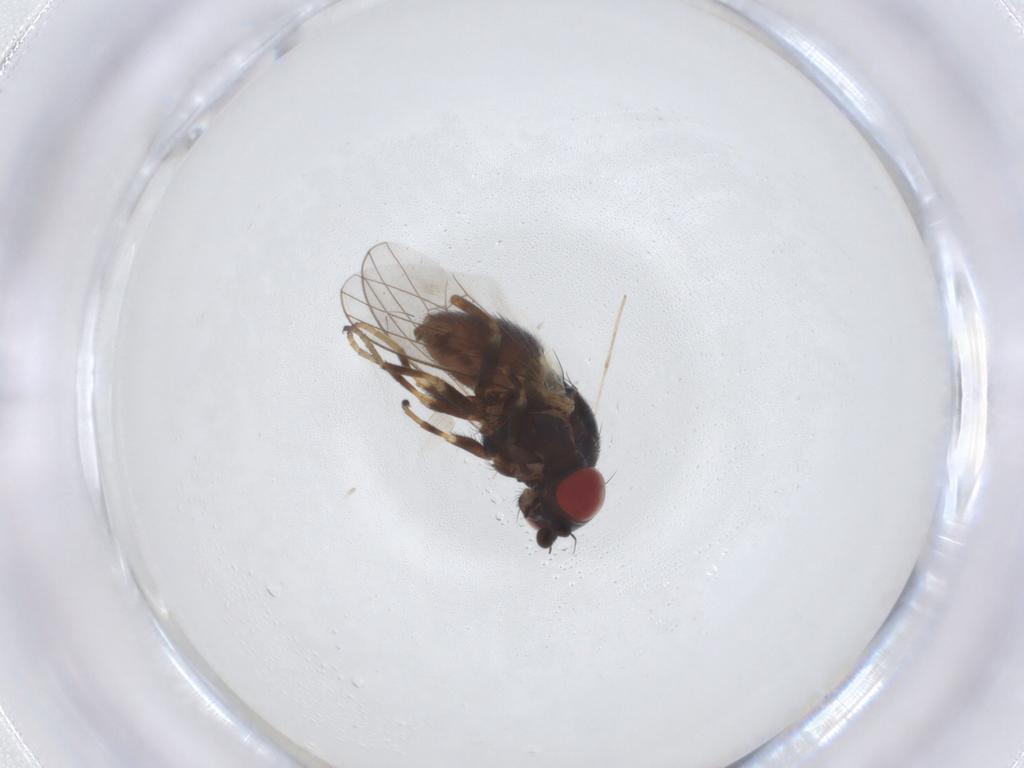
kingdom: Animalia
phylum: Arthropoda
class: Insecta
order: Diptera
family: Chamaemyiidae
